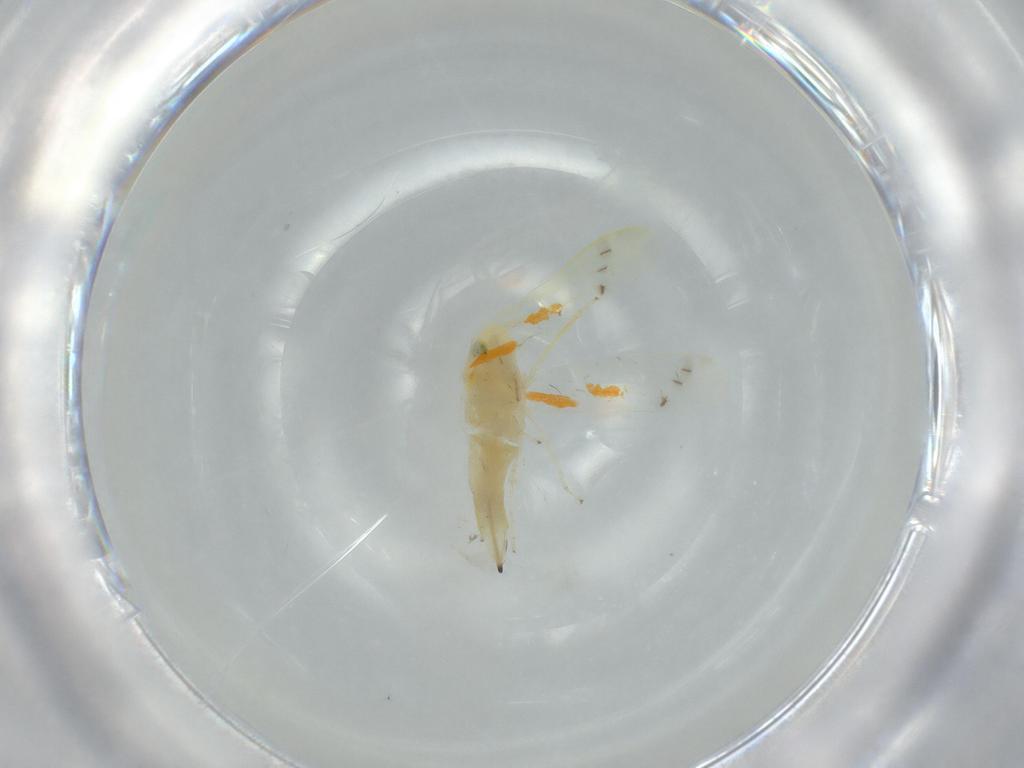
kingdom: Animalia
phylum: Arthropoda
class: Insecta
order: Hemiptera
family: Cicadellidae
